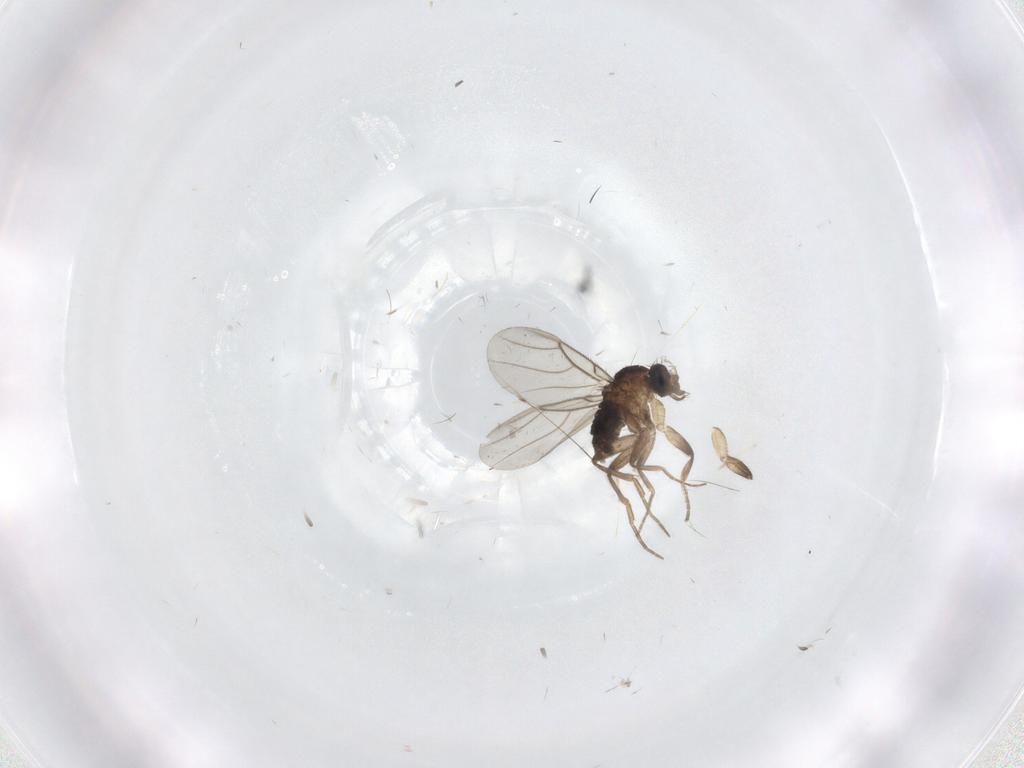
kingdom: Animalia
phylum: Arthropoda
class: Insecta
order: Diptera
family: Phoridae
